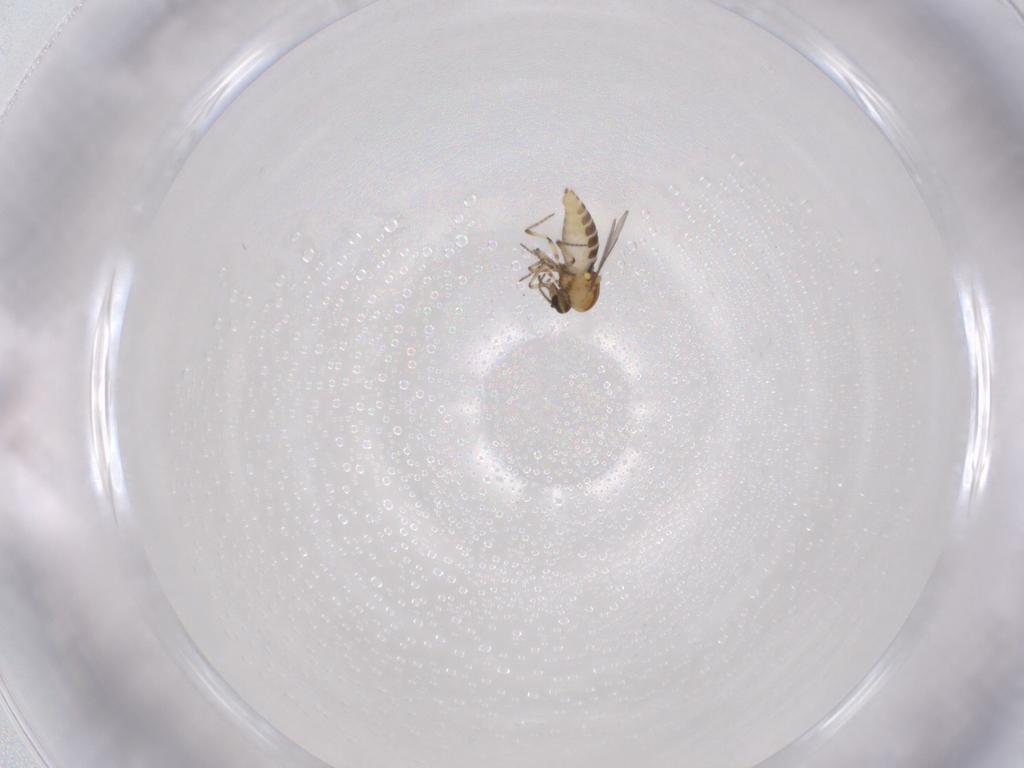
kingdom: Animalia
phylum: Arthropoda
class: Insecta
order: Diptera
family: Ceratopogonidae
